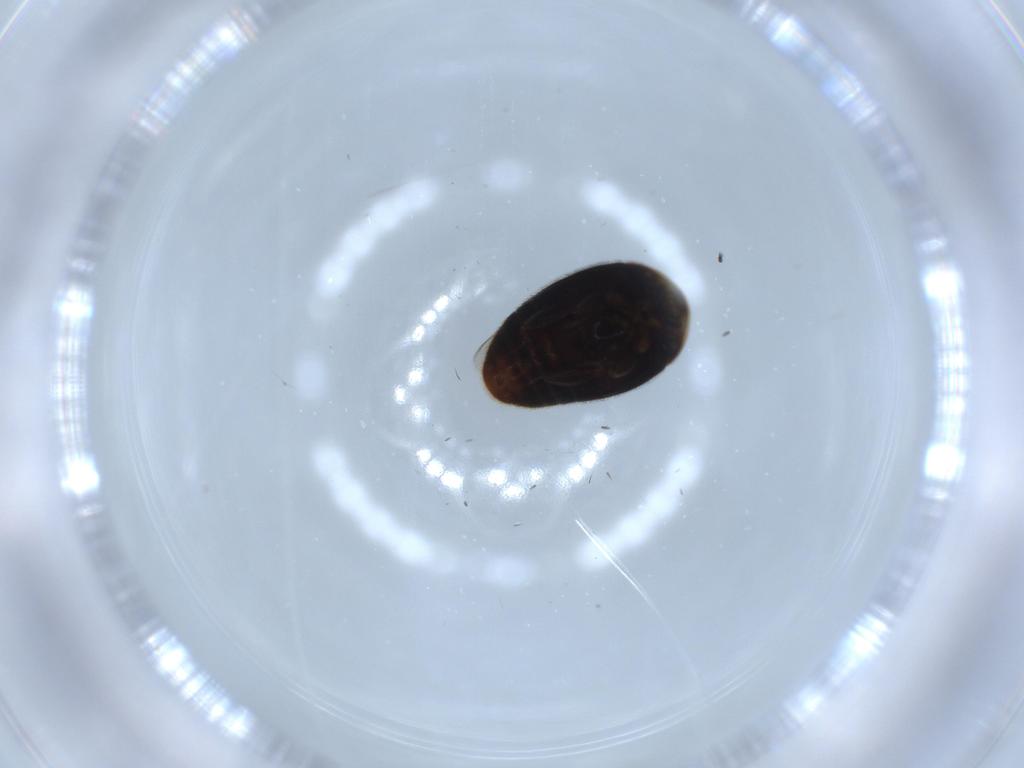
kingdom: Animalia
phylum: Arthropoda
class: Insecta
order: Coleoptera
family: Corylophidae
